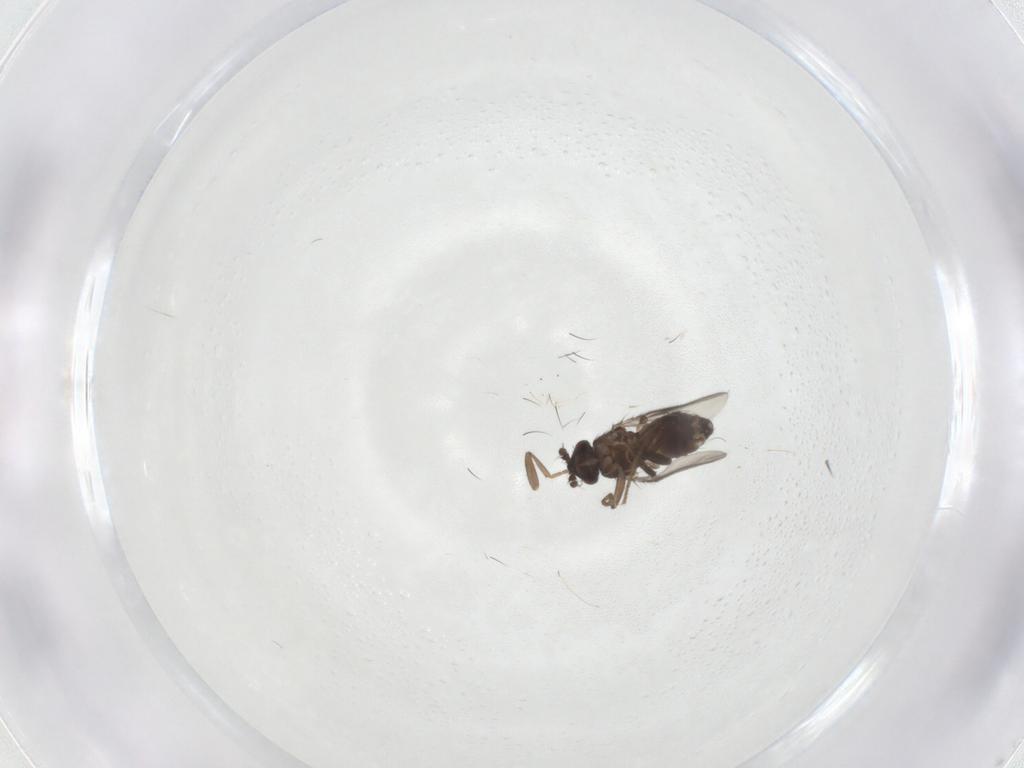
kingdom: Animalia
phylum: Arthropoda
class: Insecta
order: Diptera
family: Sphaeroceridae
